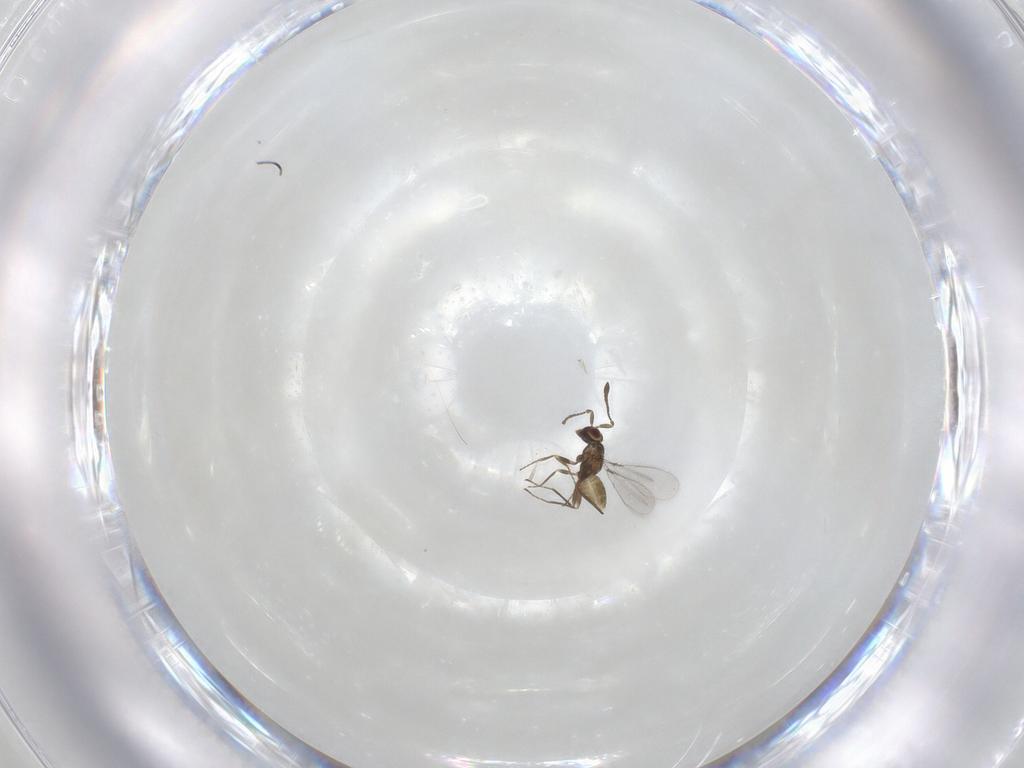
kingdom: Animalia
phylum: Arthropoda
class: Insecta
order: Hymenoptera
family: Mymaridae
